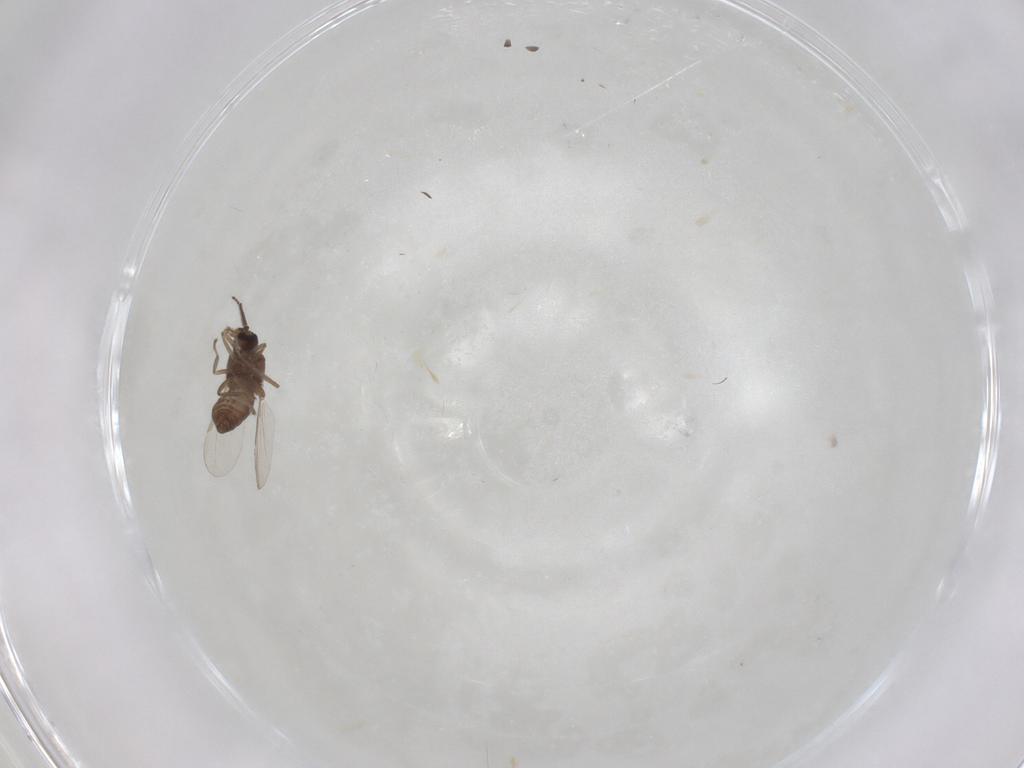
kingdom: Animalia
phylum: Arthropoda
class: Insecta
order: Diptera
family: Ceratopogonidae
